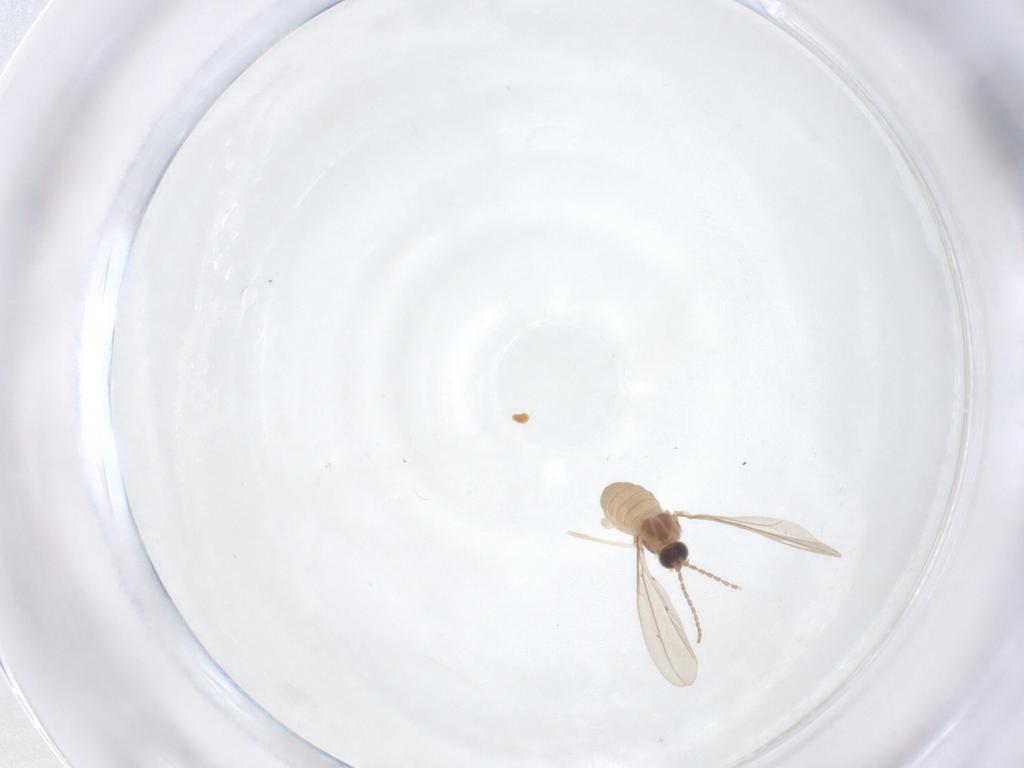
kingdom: Animalia
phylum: Arthropoda
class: Insecta
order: Diptera
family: Cecidomyiidae
